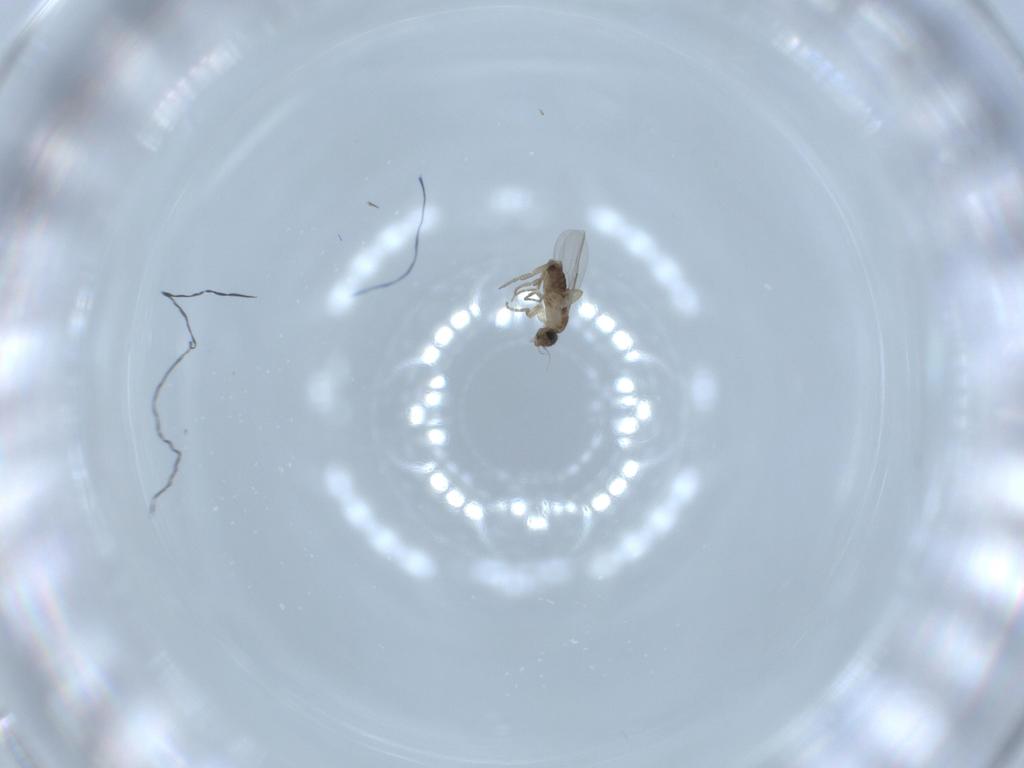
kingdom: Animalia
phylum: Arthropoda
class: Insecta
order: Diptera
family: Phoridae
